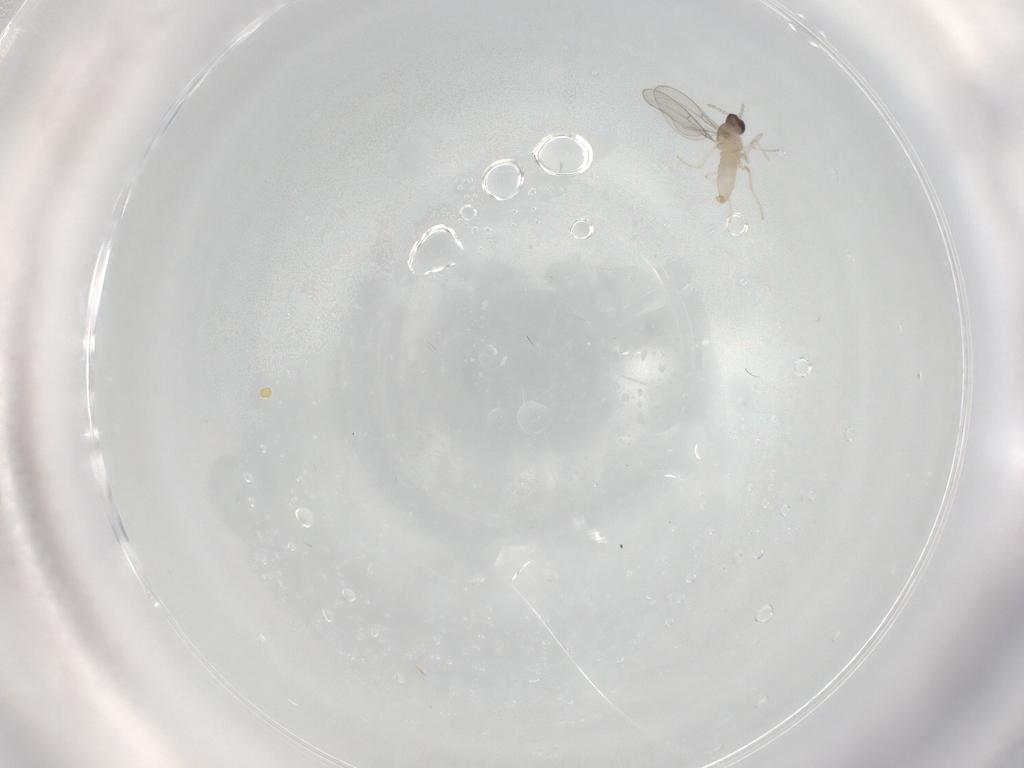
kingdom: Animalia
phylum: Arthropoda
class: Insecta
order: Diptera
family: Cecidomyiidae
